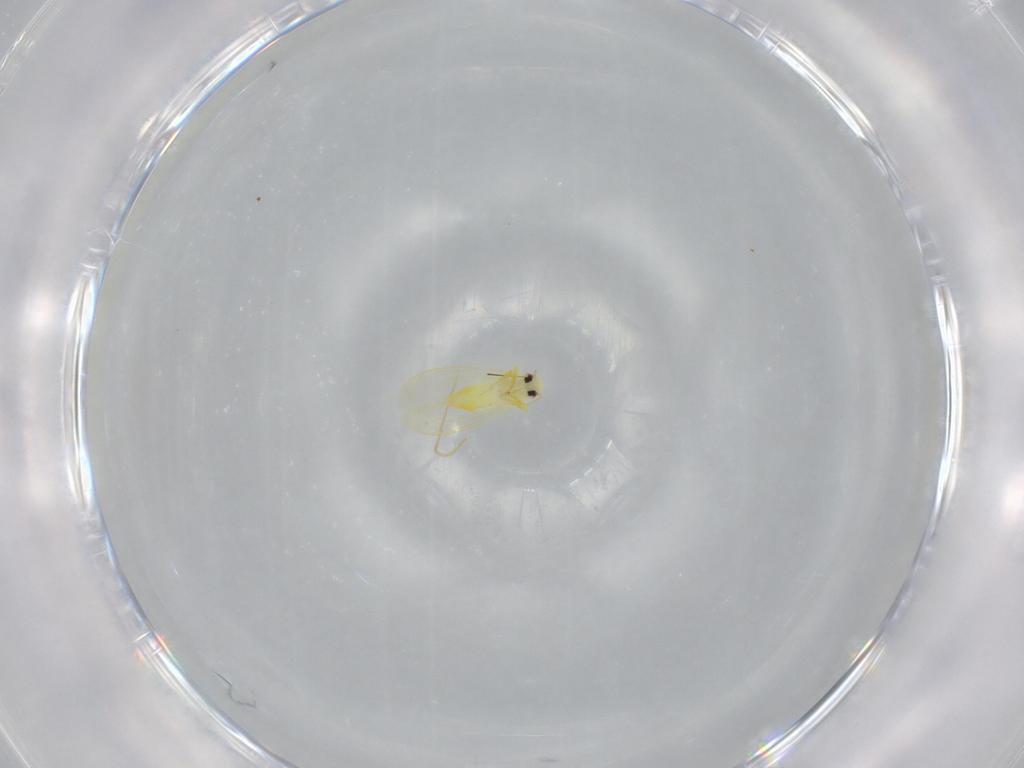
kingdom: Animalia
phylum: Arthropoda
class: Insecta
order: Hemiptera
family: Aleyrodidae
